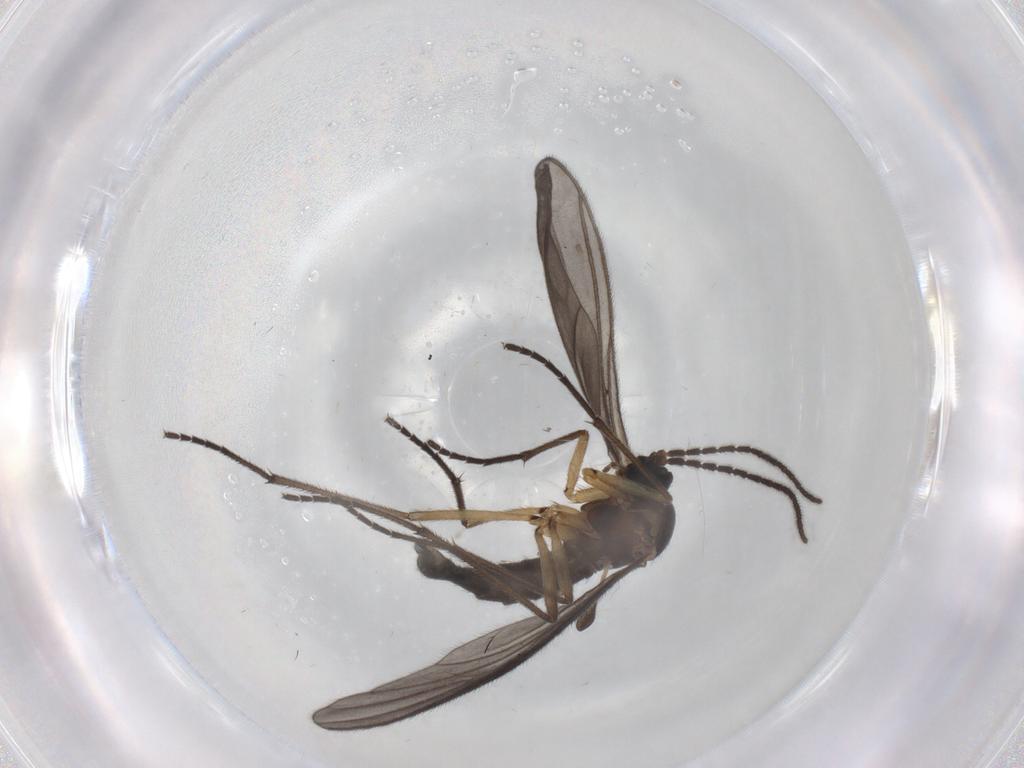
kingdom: Animalia
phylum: Arthropoda
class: Insecta
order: Diptera
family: Sciaridae
